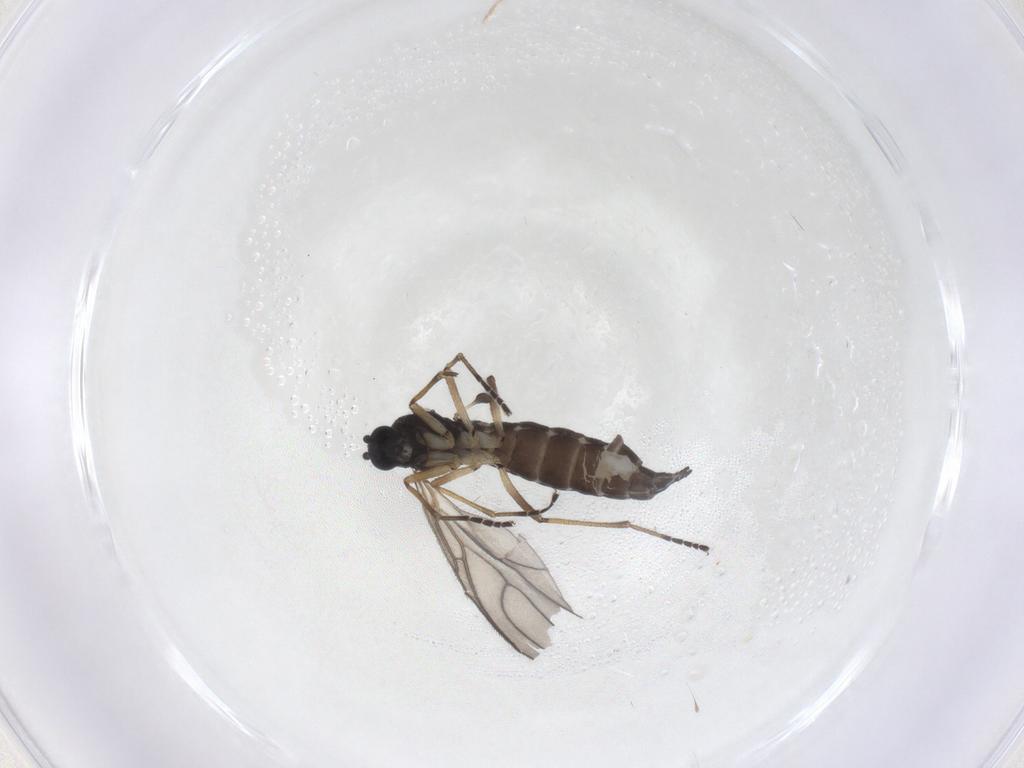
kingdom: Animalia
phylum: Arthropoda
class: Insecta
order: Diptera
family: Sciaridae
